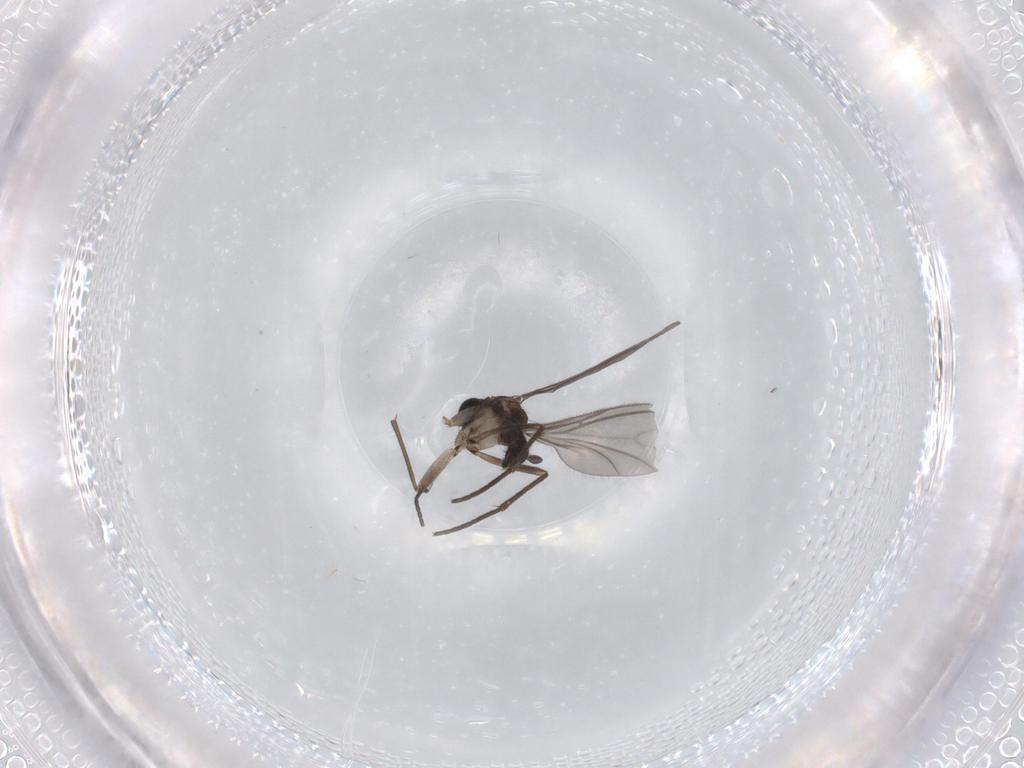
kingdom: Animalia
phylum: Arthropoda
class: Insecta
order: Diptera
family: Sciaridae
